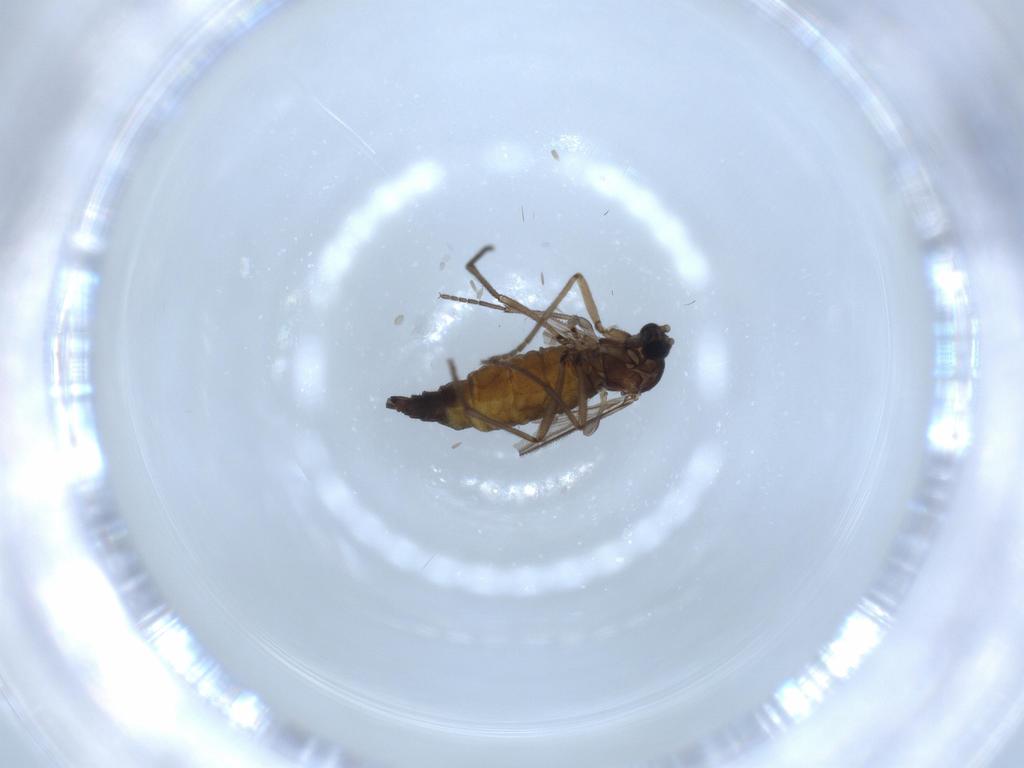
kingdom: Animalia
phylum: Arthropoda
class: Insecta
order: Diptera
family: Sciaridae
